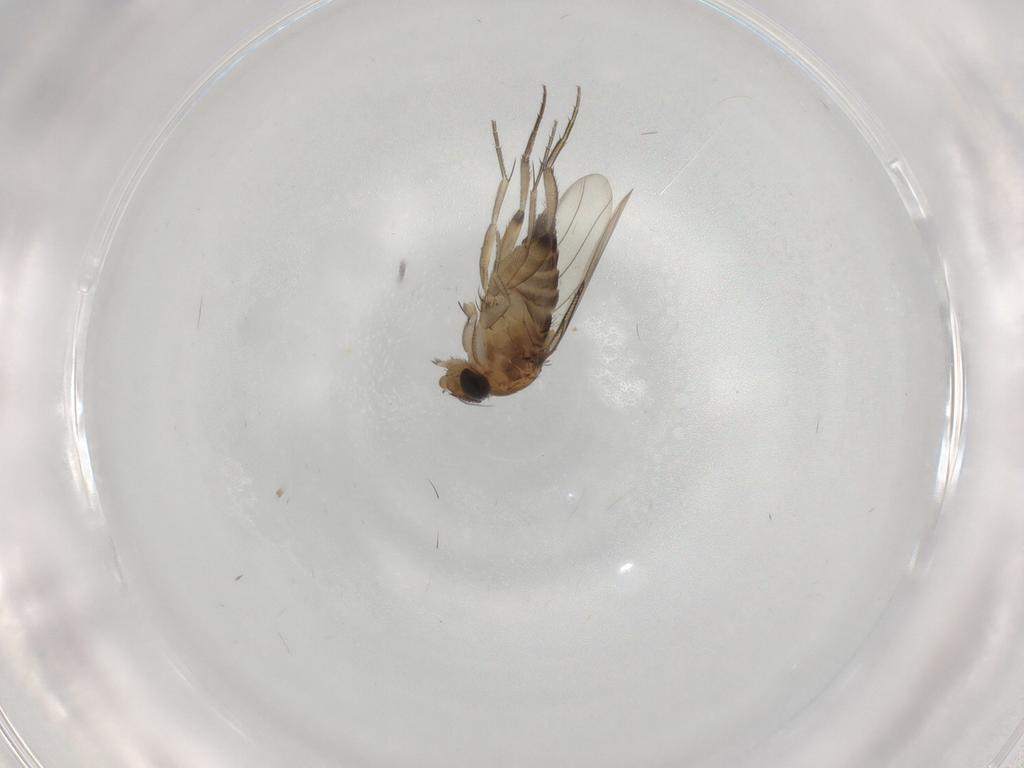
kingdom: Animalia
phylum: Arthropoda
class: Insecta
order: Diptera
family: Phoridae
